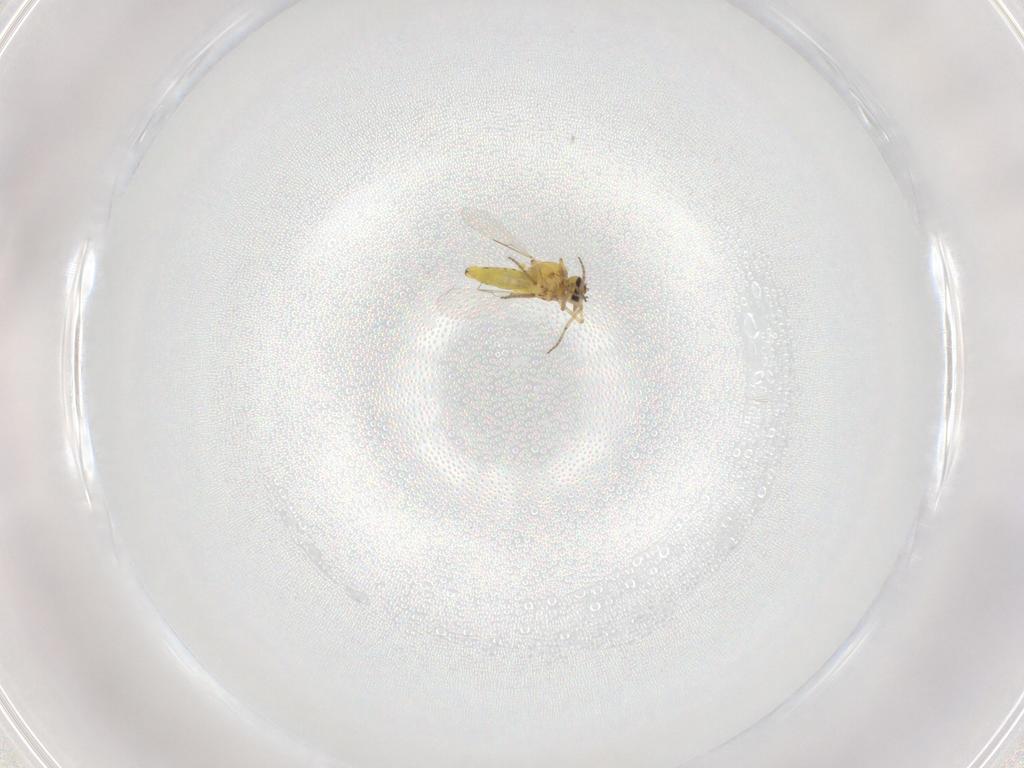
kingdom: Animalia
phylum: Arthropoda
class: Insecta
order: Diptera
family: Ceratopogonidae
